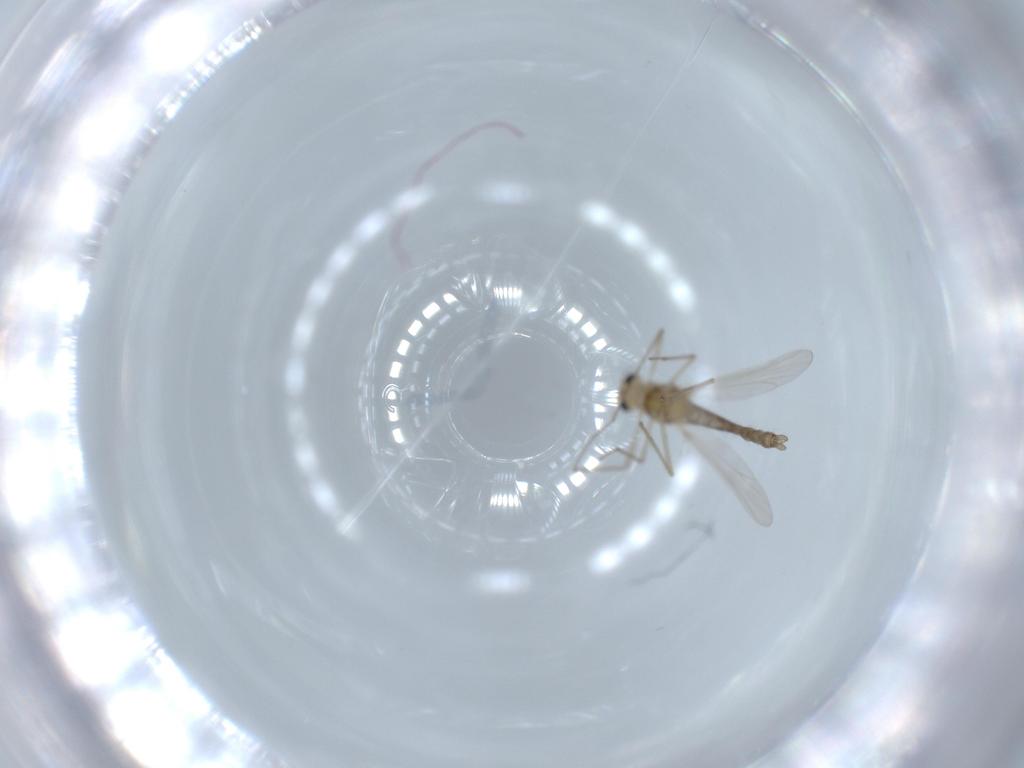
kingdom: Animalia
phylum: Arthropoda
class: Insecta
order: Diptera
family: Chironomidae
